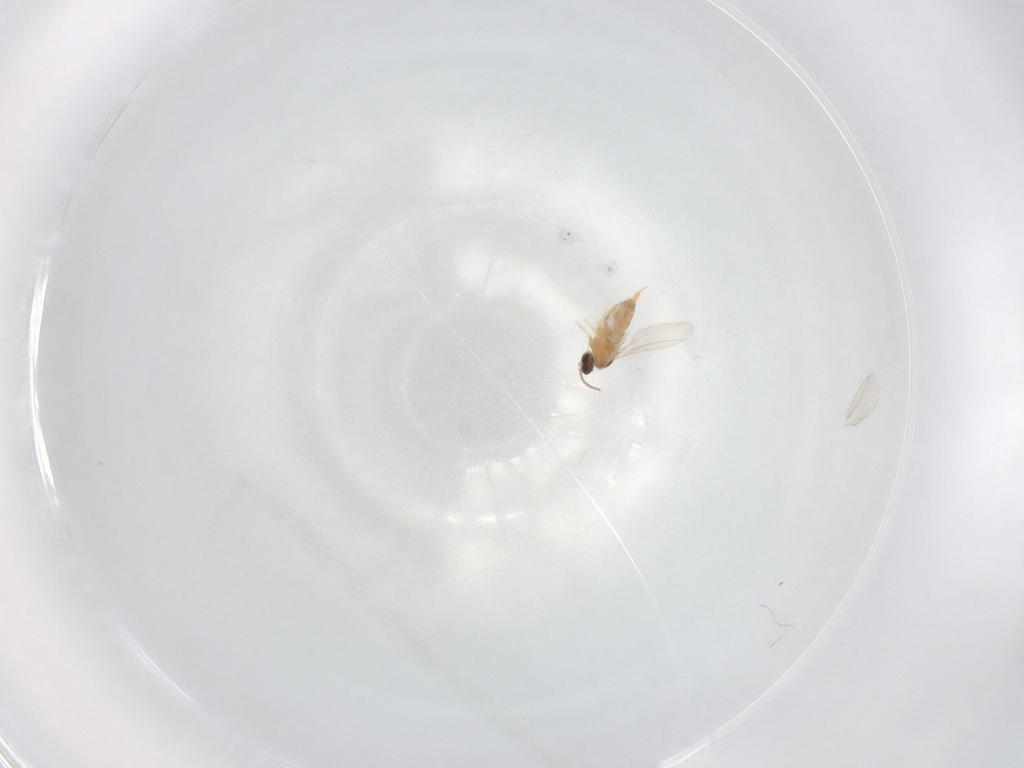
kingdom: Animalia
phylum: Arthropoda
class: Insecta
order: Diptera
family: Cecidomyiidae
